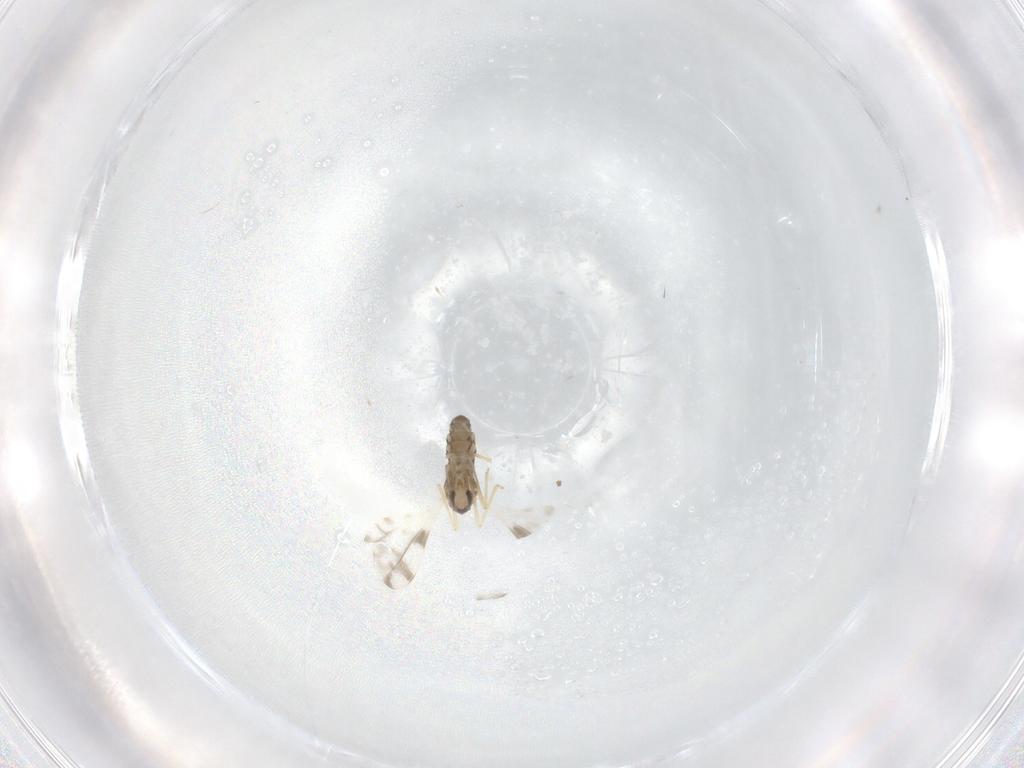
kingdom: Animalia
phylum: Arthropoda
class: Insecta
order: Diptera
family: Cecidomyiidae
